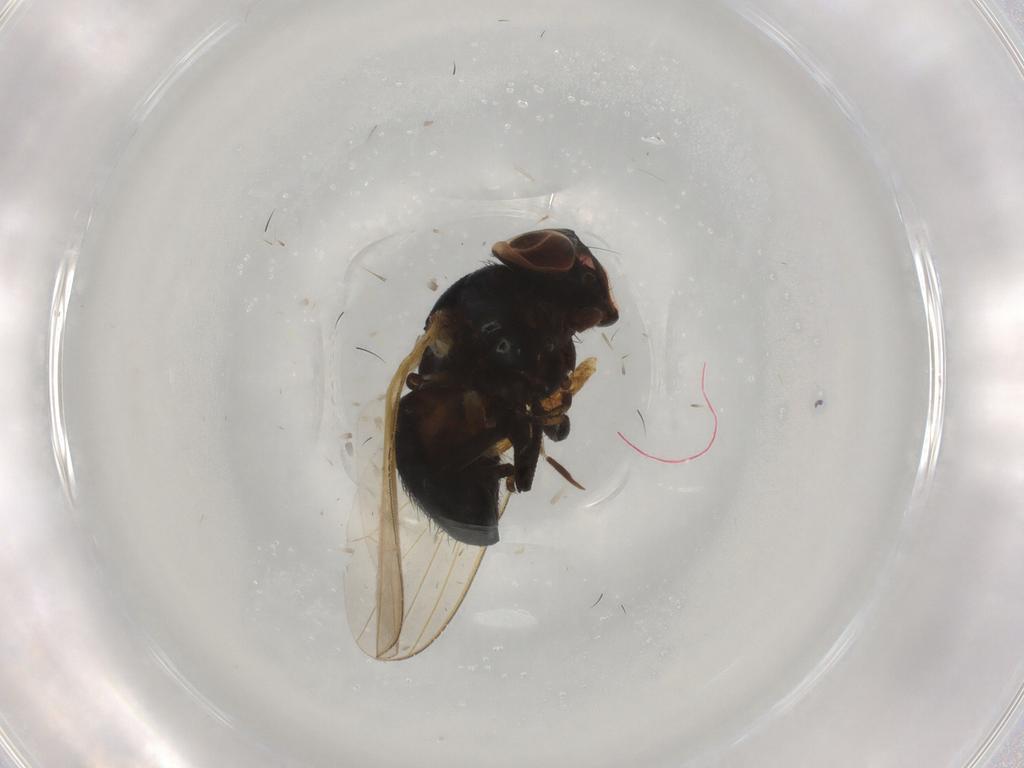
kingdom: Animalia
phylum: Arthropoda
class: Insecta
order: Diptera
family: Lonchaeidae
